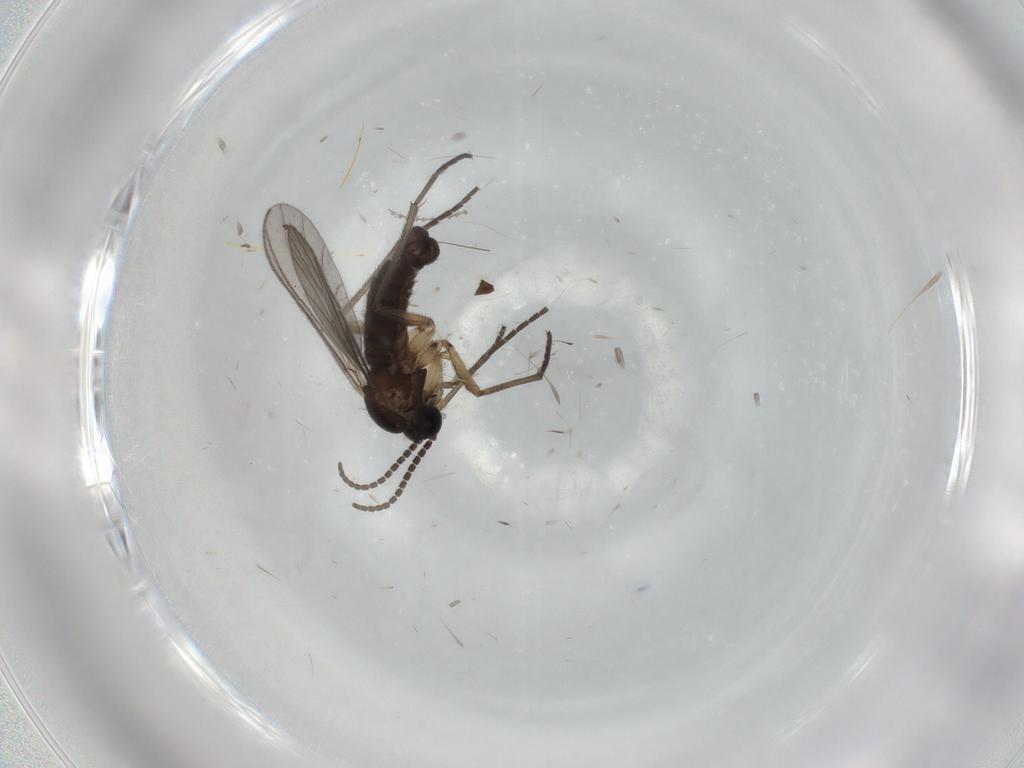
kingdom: Animalia
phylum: Arthropoda
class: Insecta
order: Diptera
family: Sciaridae
